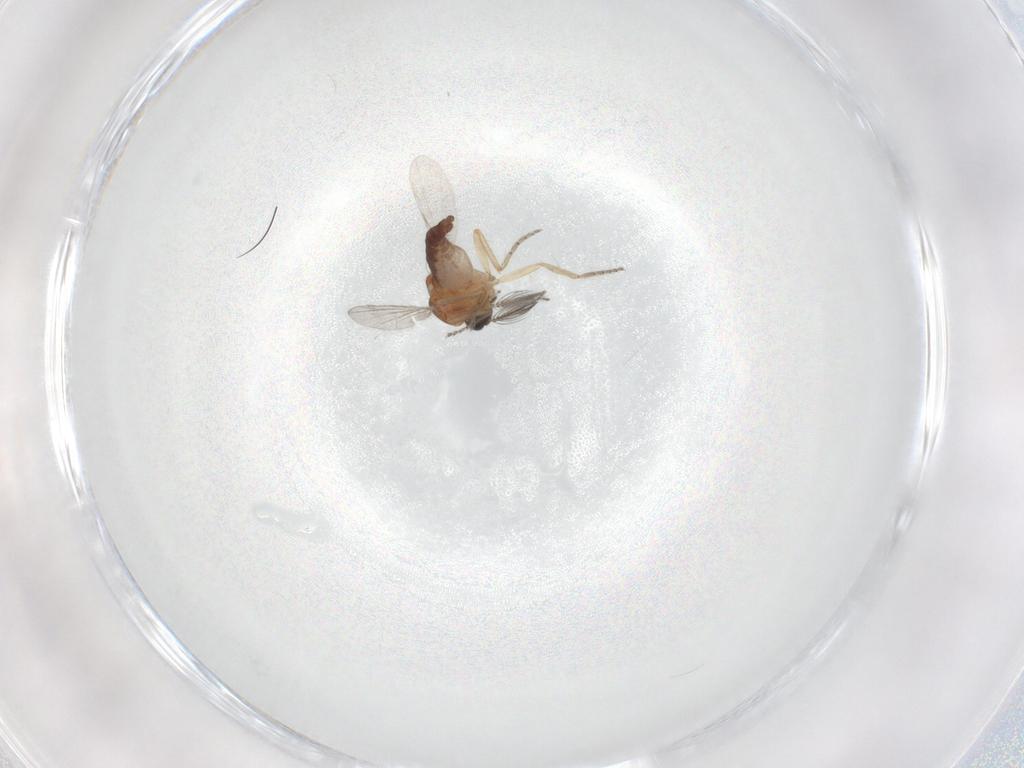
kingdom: Animalia
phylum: Arthropoda
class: Insecta
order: Diptera
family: Ceratopogonidae
